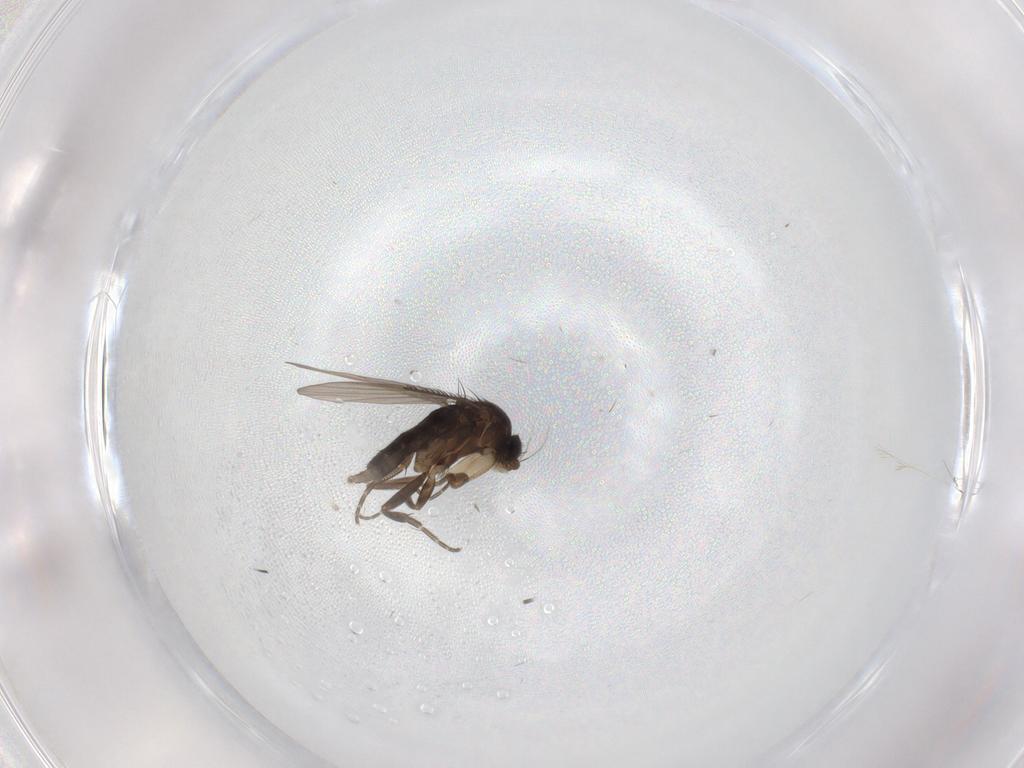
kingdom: Animalia
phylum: Arthropoda
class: Insecta
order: Diptera
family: Phoridae
